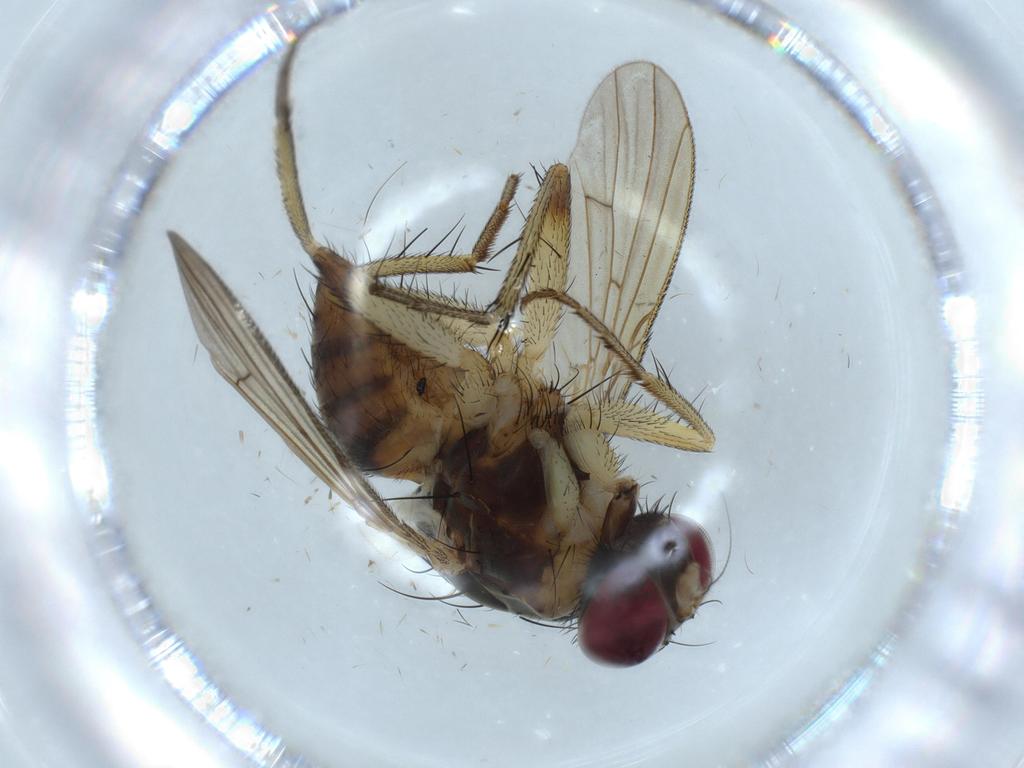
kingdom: Animalia
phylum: Arthropoda
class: Insecta
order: Diptera
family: Muscidae
